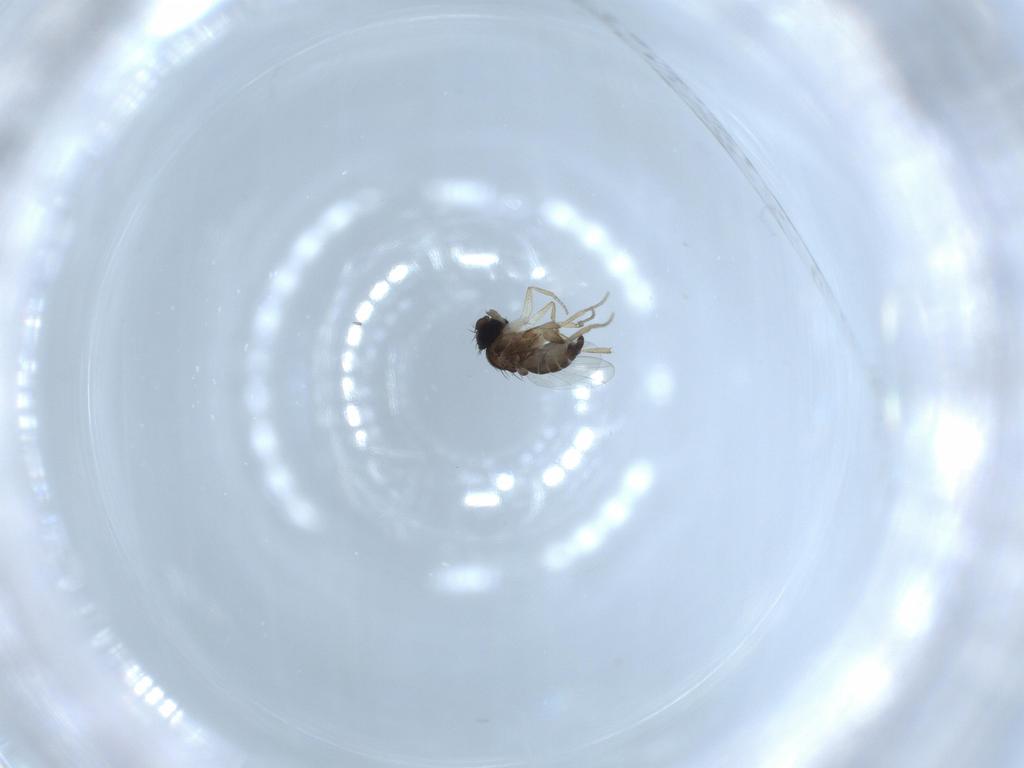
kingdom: Animalia
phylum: Arthropoda
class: Insecta
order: Diptera
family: Phoridae
